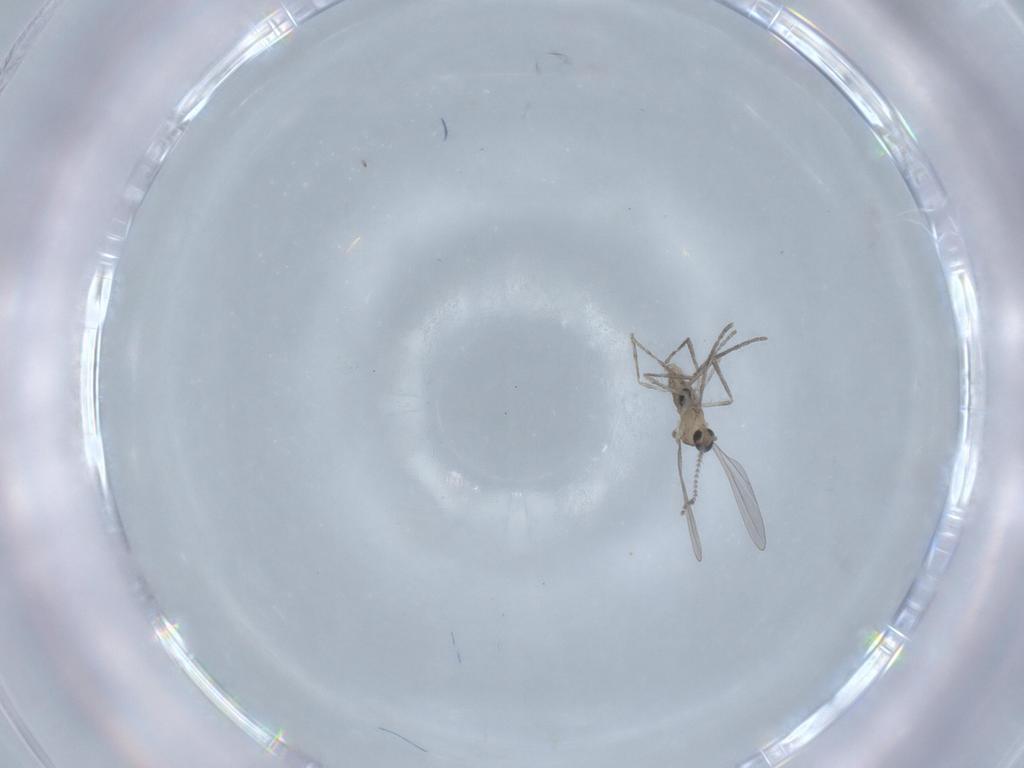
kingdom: Animalia
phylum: Arthropoda
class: Insecta
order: Diptera
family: Cecidomyiidae
